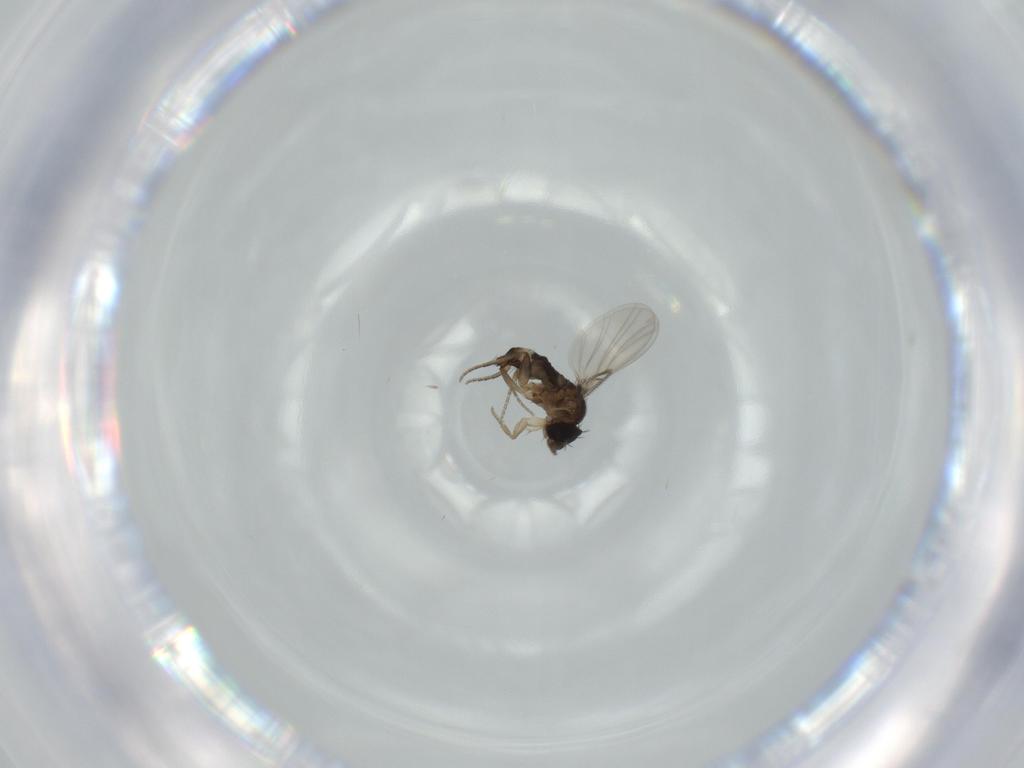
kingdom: Animalia
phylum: Arthropoda
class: Insecta
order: Diptera
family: Phoridae
